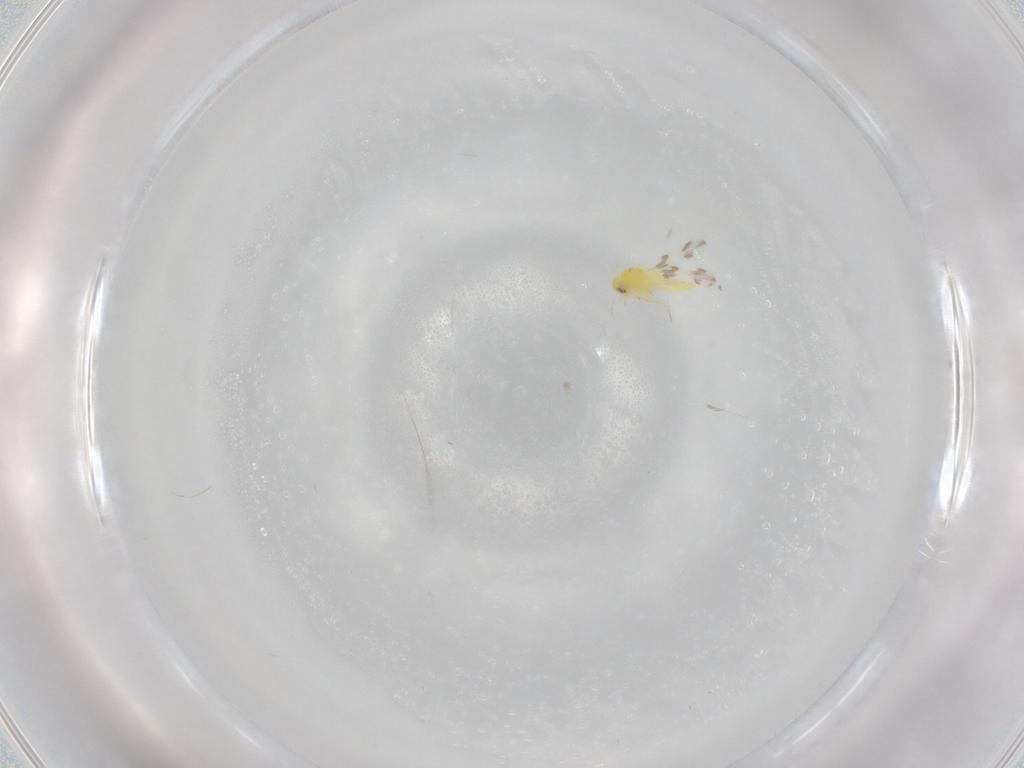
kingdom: Animalia
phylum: Arthropoda
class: Insecta
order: Hemiptera
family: Aleyrodidae
